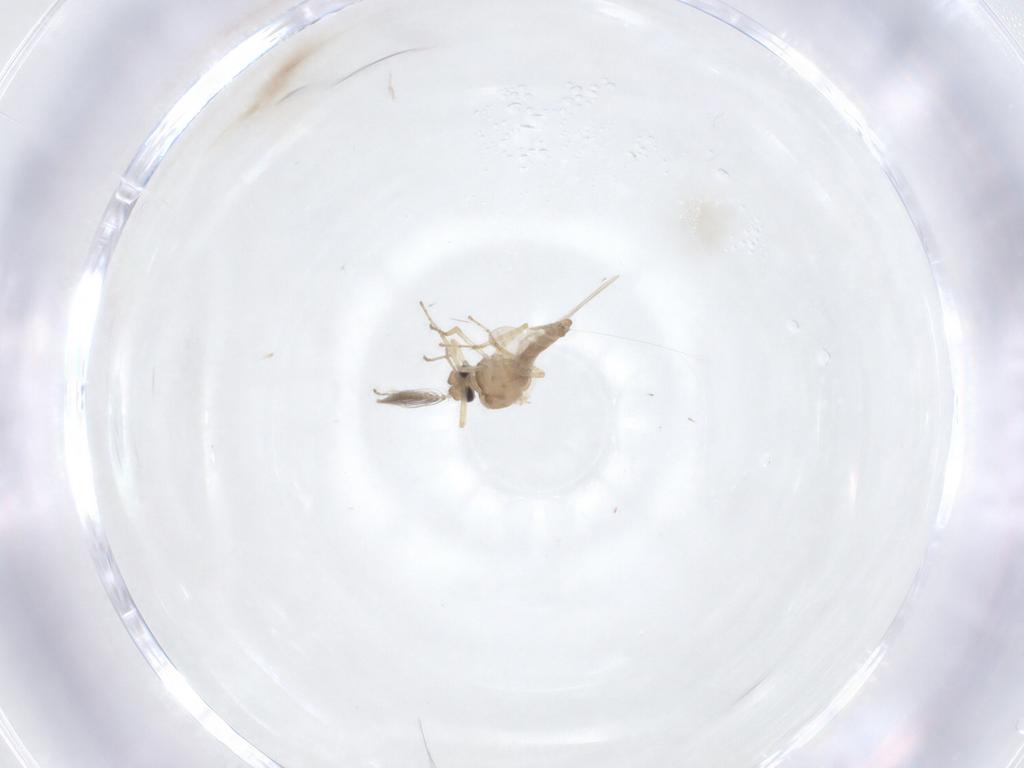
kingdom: Animalia
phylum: Arthropoda
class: Insecta
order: Diptera
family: Ceratopogonidae
